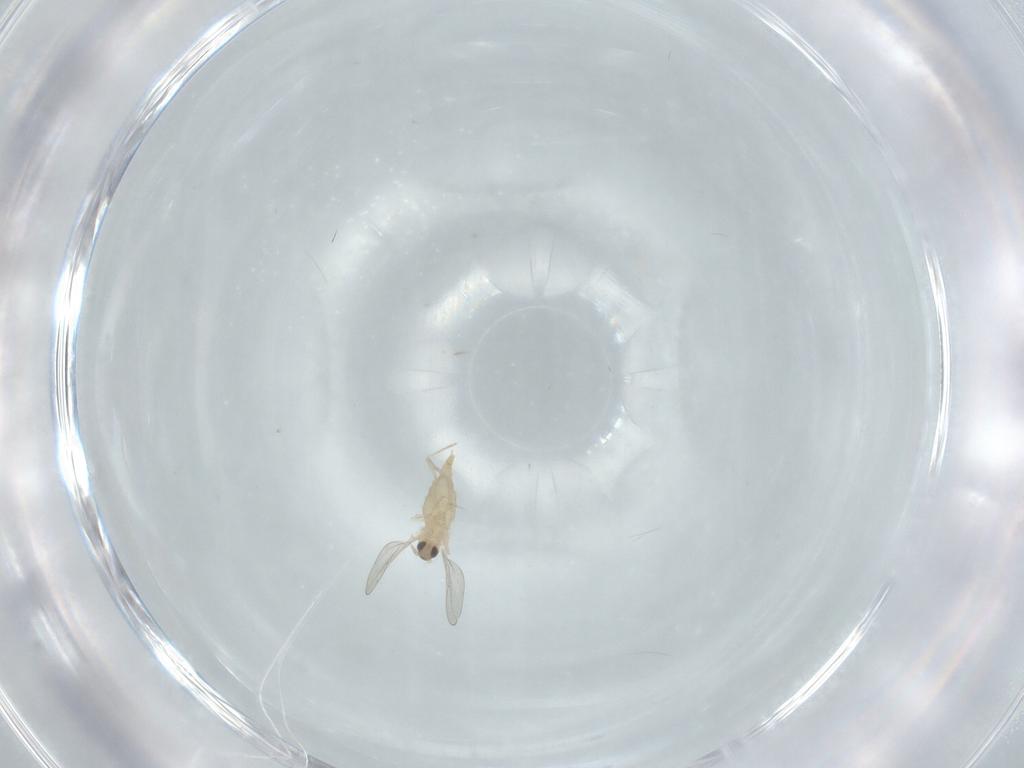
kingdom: Animalia
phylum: Arthropoda
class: Insecta
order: Diptera
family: Cecidomyiidae
